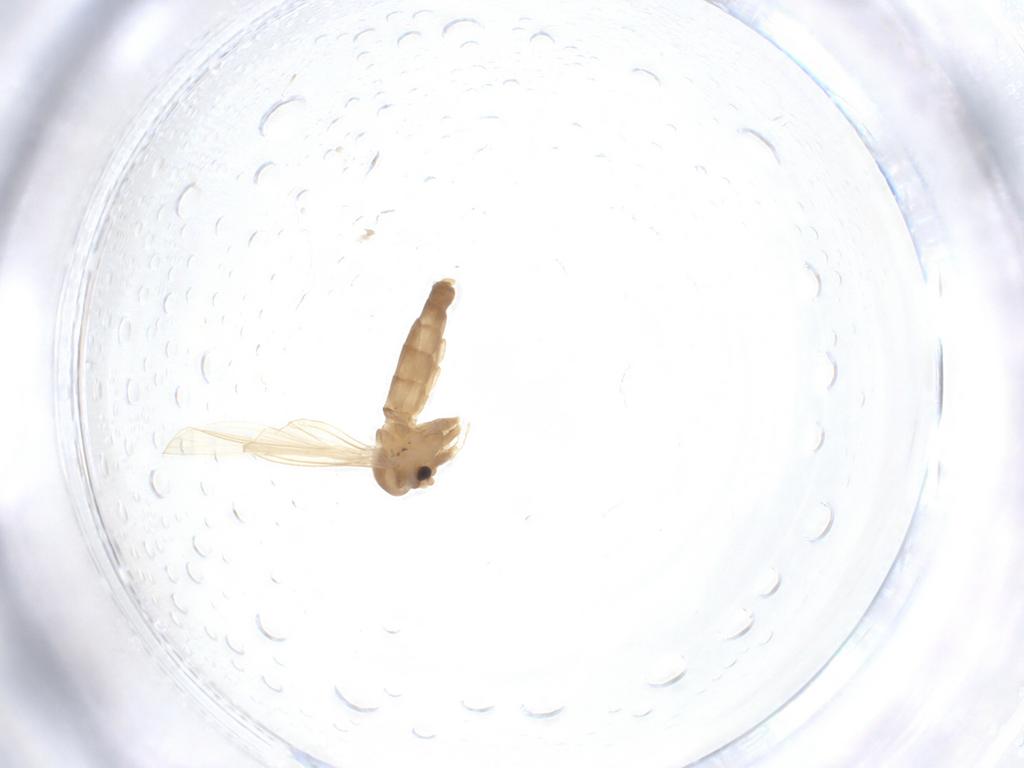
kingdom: Animalia
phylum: Arthropoda
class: Insecta
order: Diptera
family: Psychodidae
